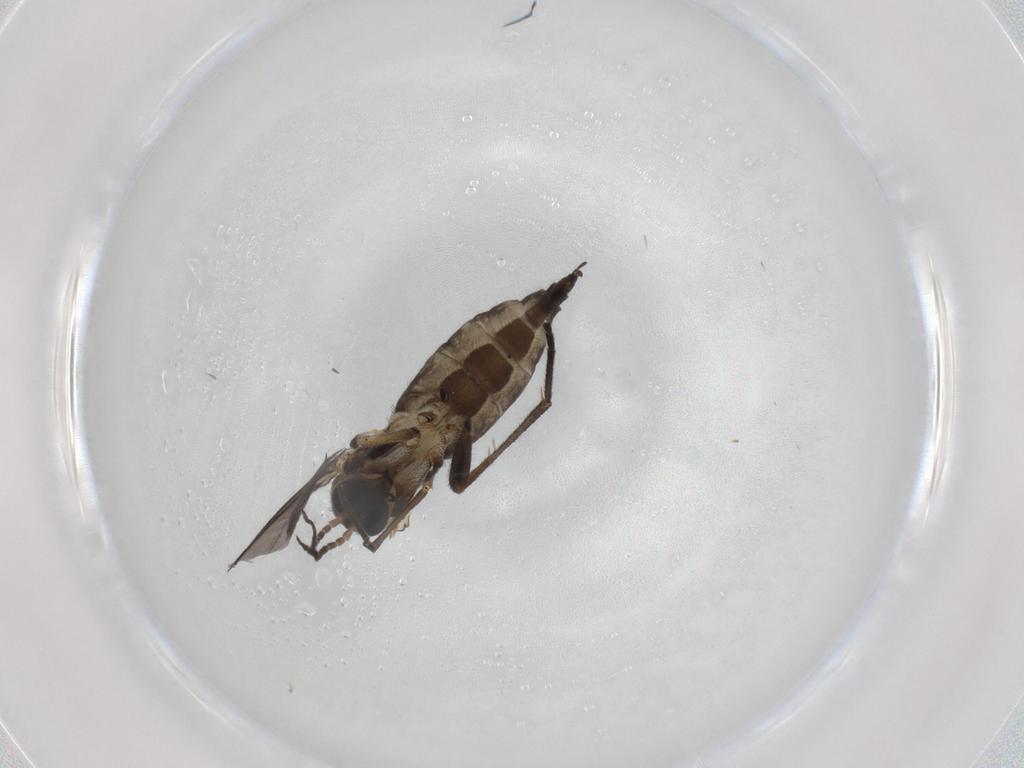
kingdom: Animalia
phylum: Arthropoda
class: Insecta
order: Diptera
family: Sciaridae
